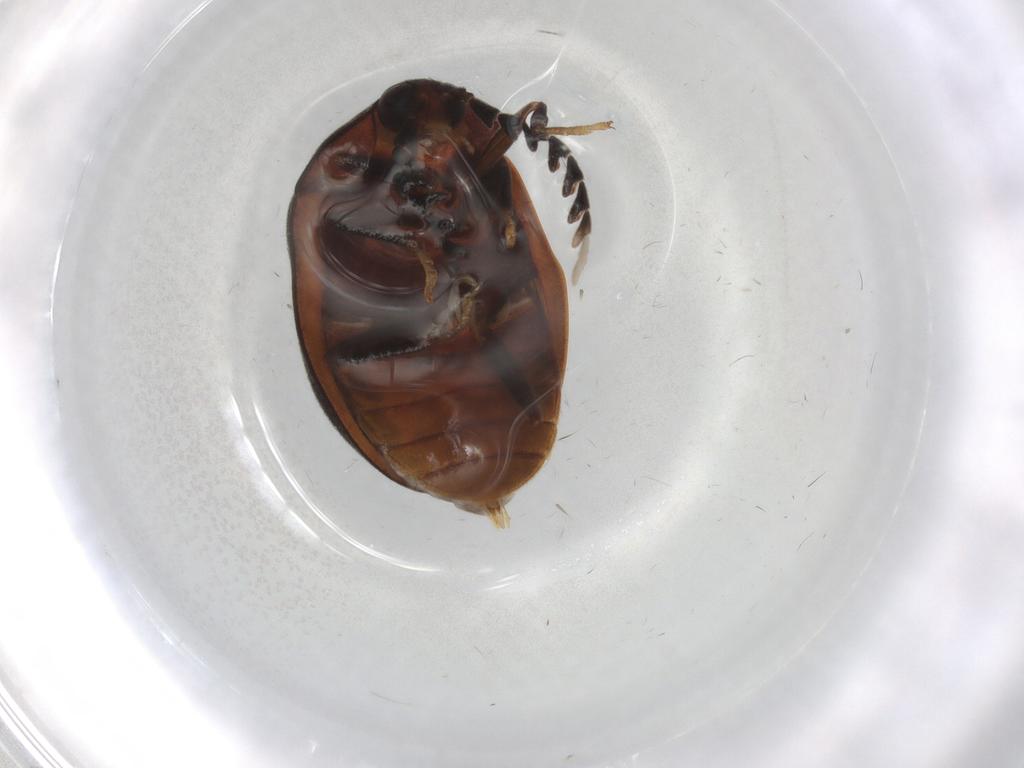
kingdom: Animalia
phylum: Arthropoda
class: Insecta
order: Coleoptera
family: Psephenidae
